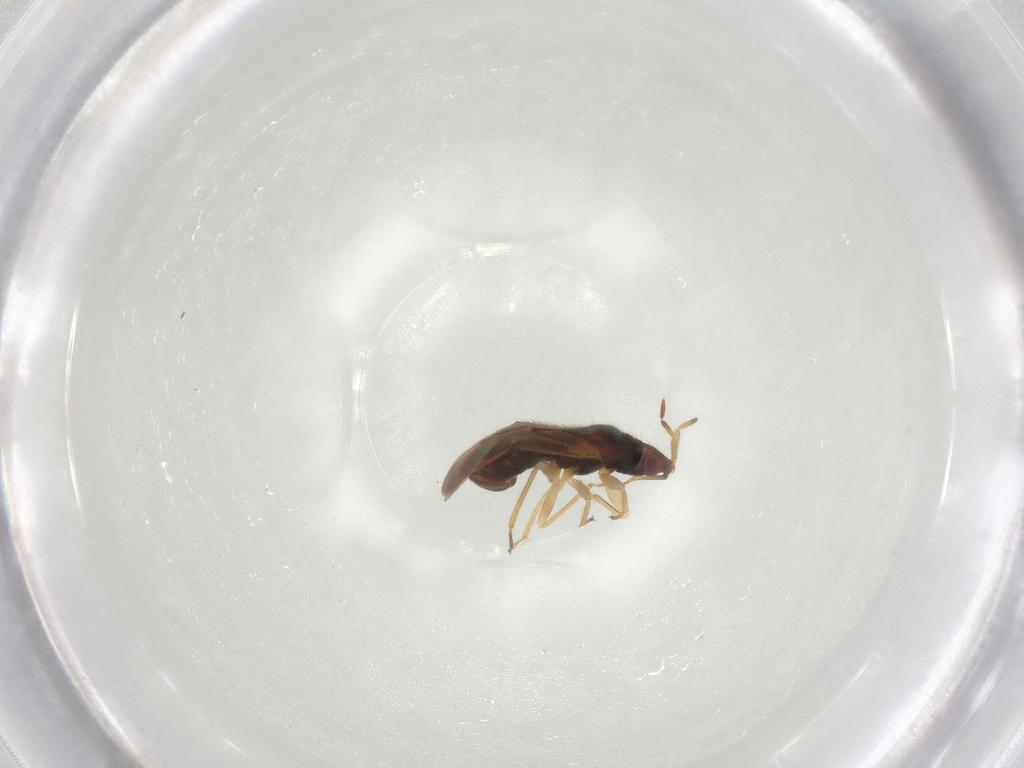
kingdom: Animalia
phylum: Arthropoda
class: Insecta
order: Hemiptera
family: Anthocoridae
